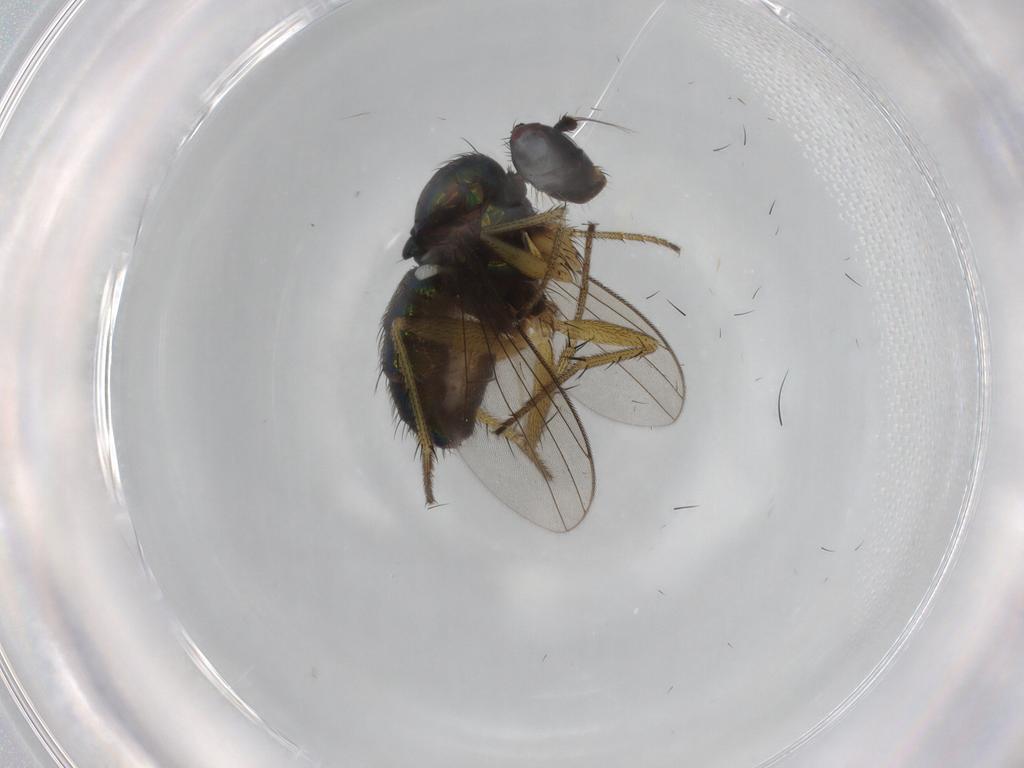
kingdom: Animalia
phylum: Arthropoda
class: Insecta
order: Diptera
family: Dolichopodidae
